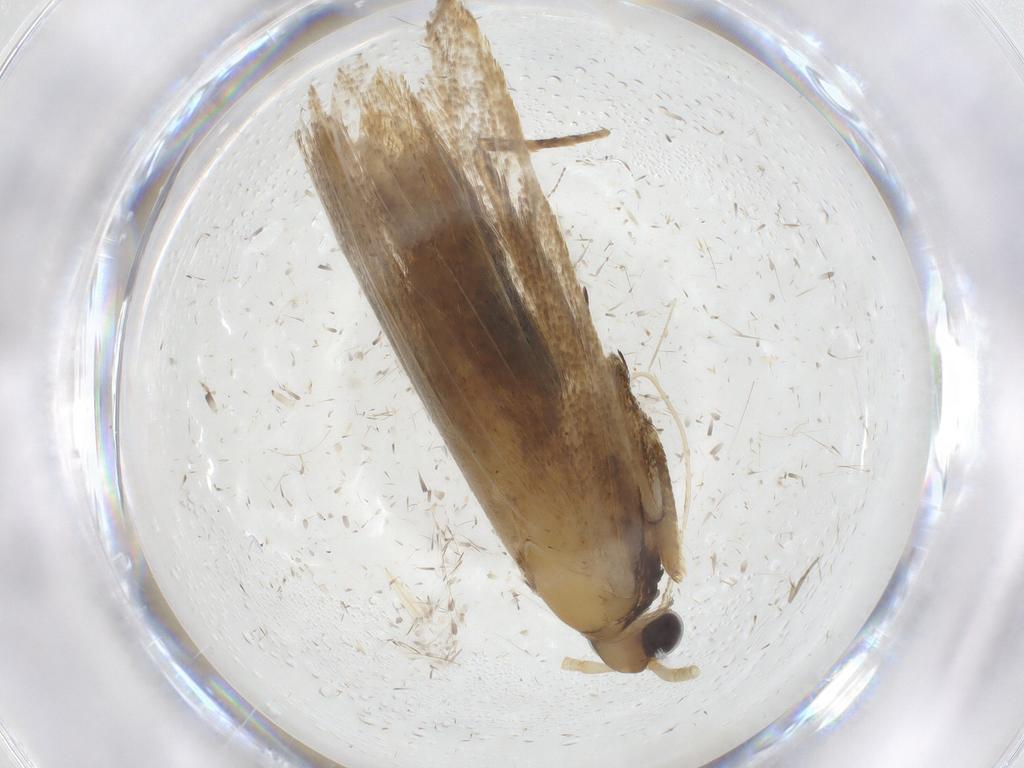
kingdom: Animalia
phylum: Arthropoda
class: Insecta
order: Lepidoptera
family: Lecithoceridae
